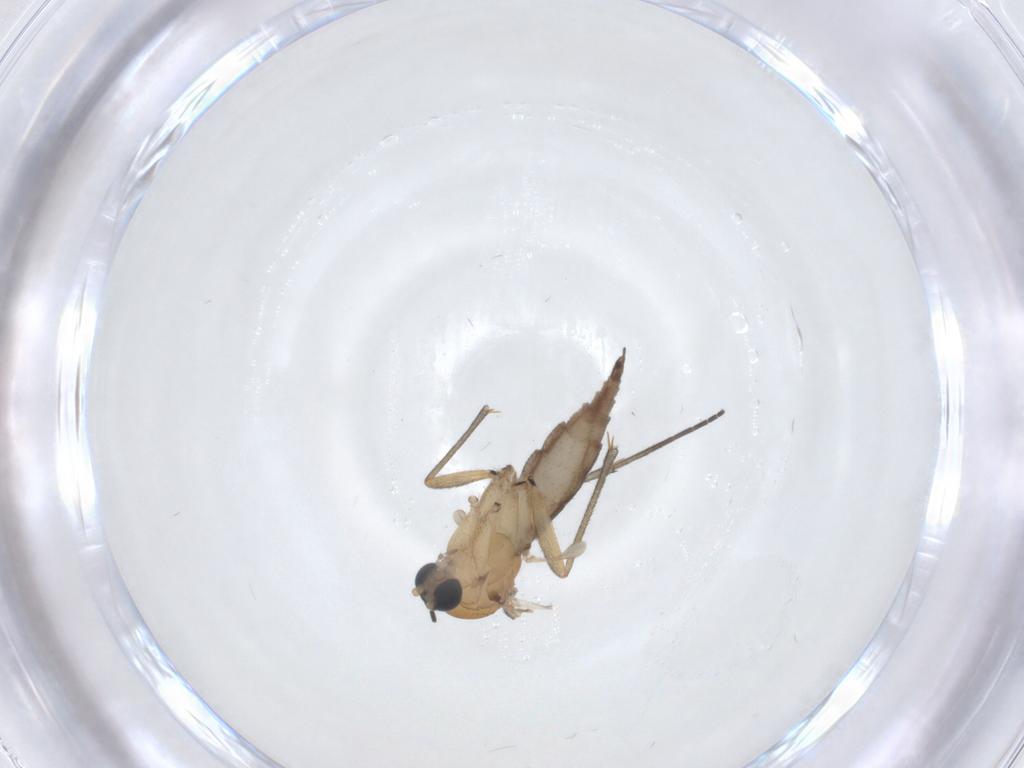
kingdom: Animalia
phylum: Arthropoda
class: Insecta
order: Diptera
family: Sciaridae
